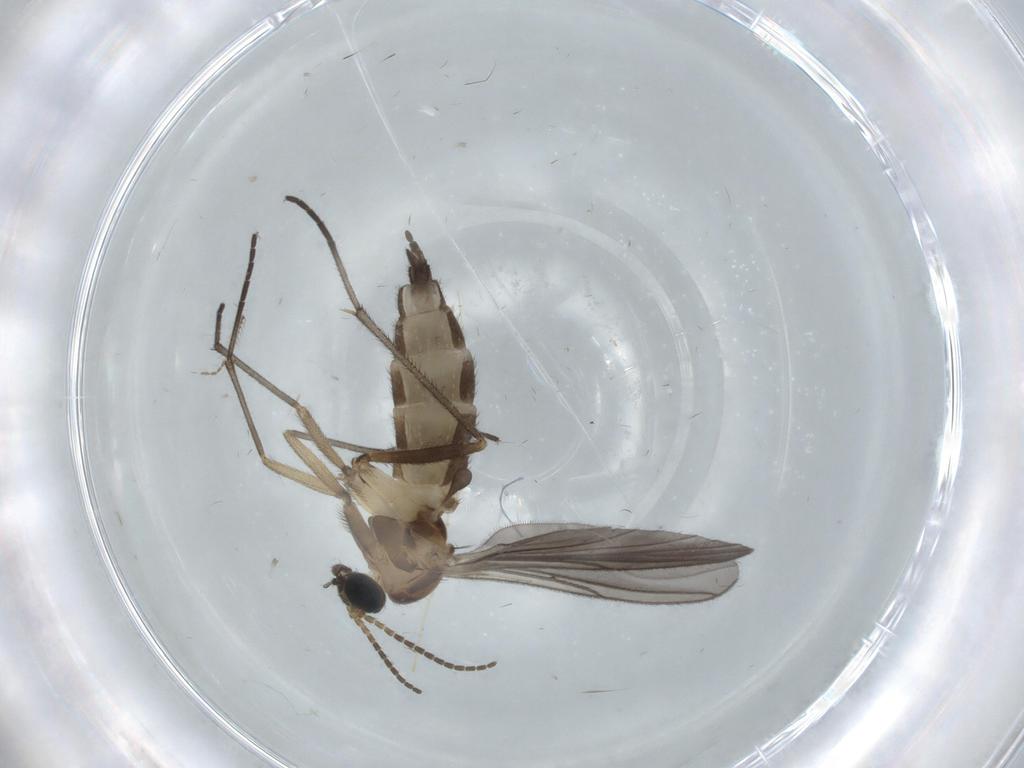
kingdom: Animalia
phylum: Arthropoda
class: Insecta
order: Diptera
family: Sciaridae
